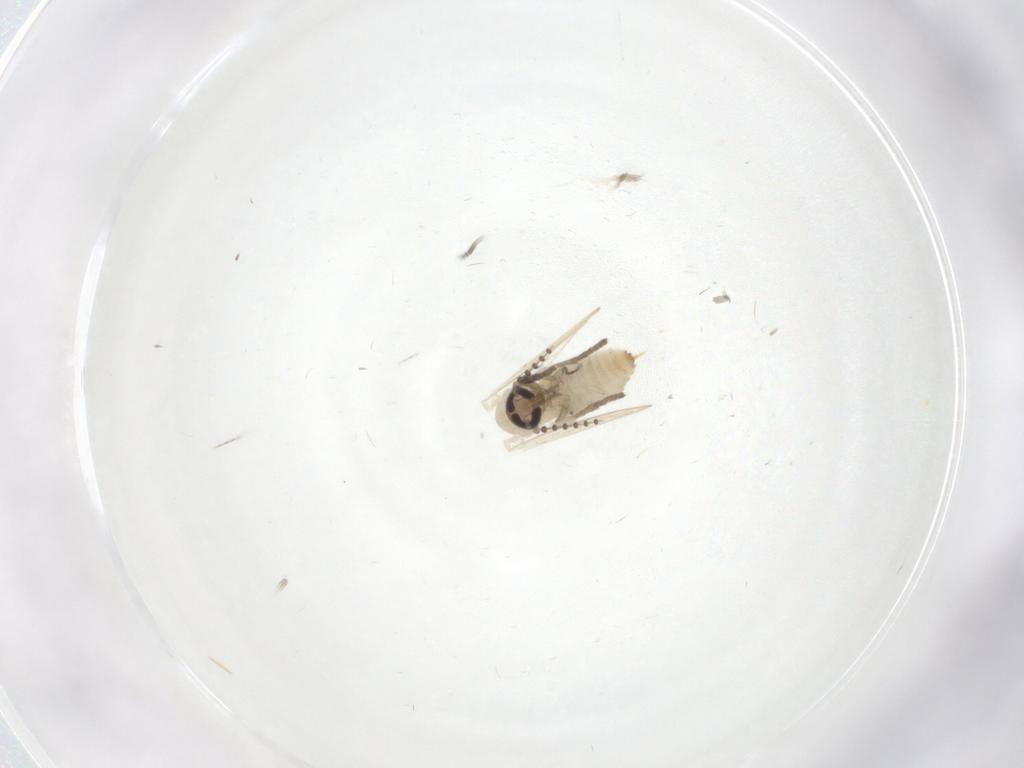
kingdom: Animalia
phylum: Arthropoda
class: Insecta
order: Diptera
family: Psychodidae
